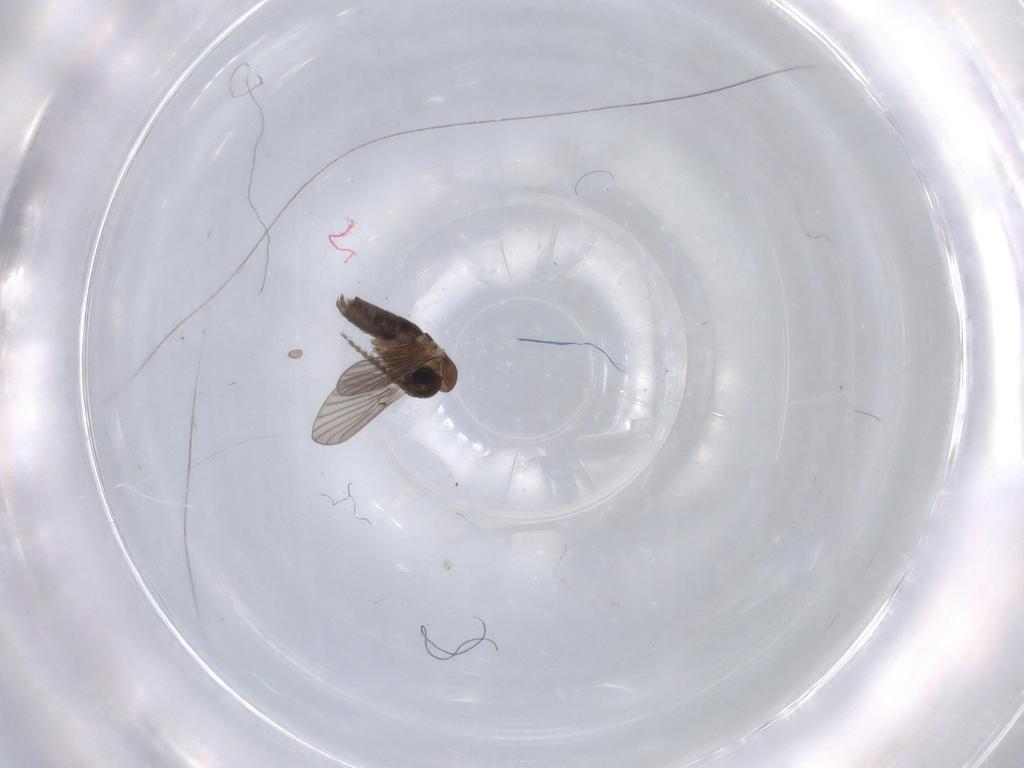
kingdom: Animalia
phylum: Arthropoda
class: Insecta
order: Diptera
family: Psychodidae
